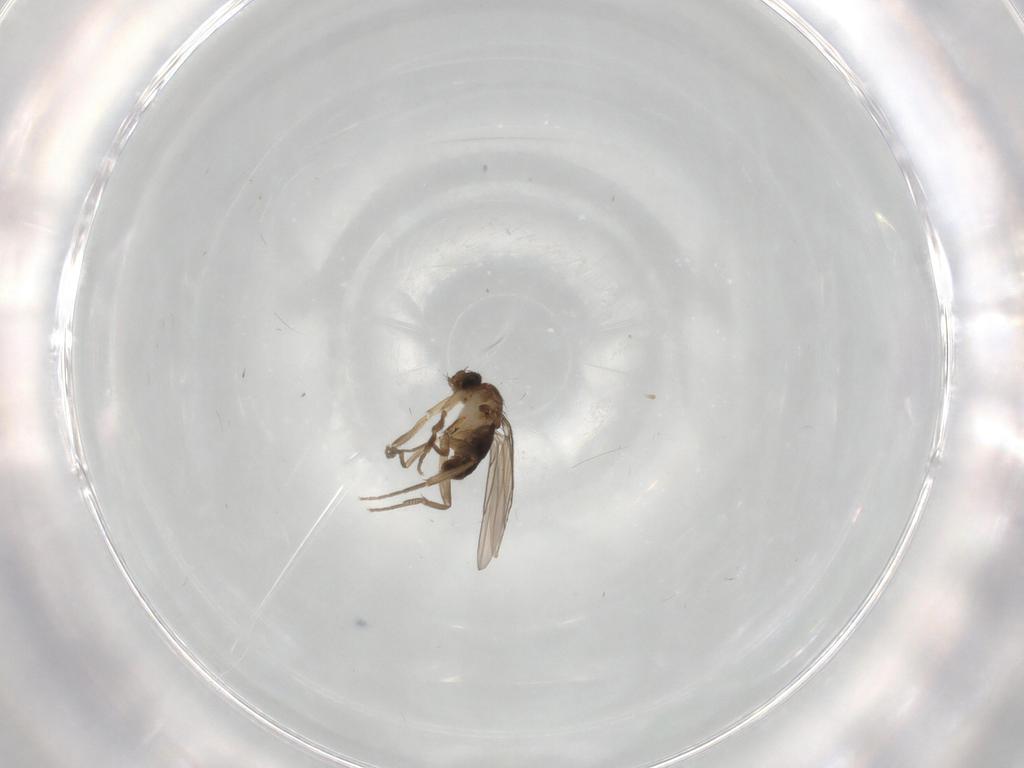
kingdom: Animalia
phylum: Arthropoda
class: Insecta
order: Diptera
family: Phoridae
